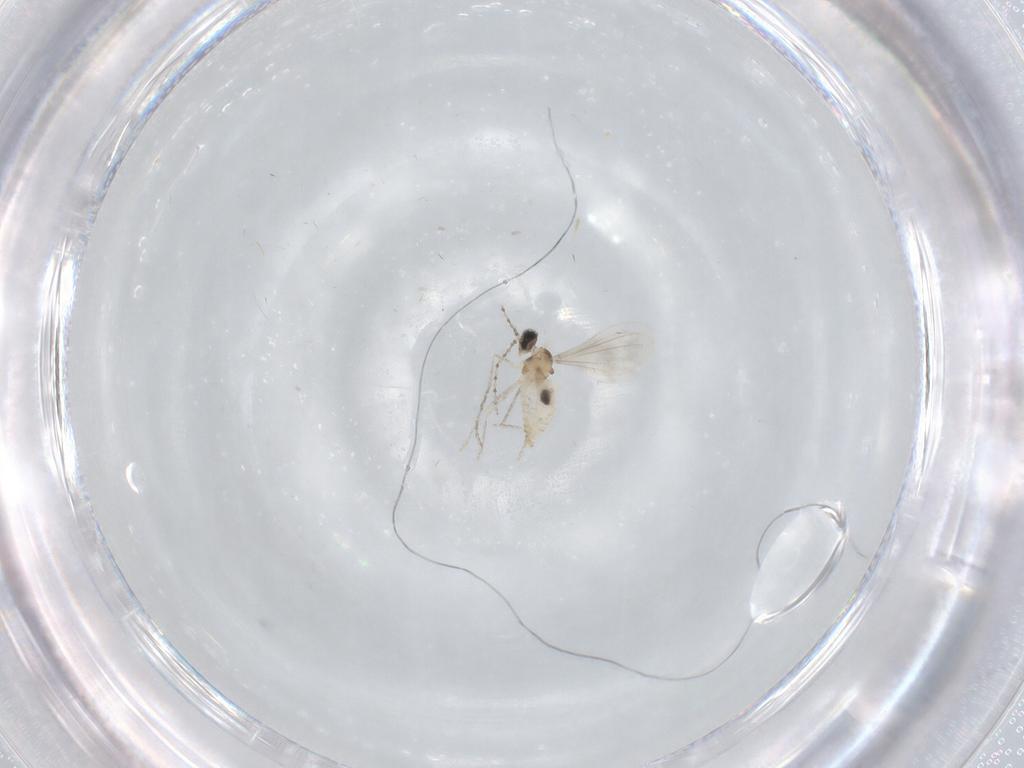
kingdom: Animalia
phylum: Arthropoda
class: Insecta
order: Diptera
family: Cecidomyiidae
